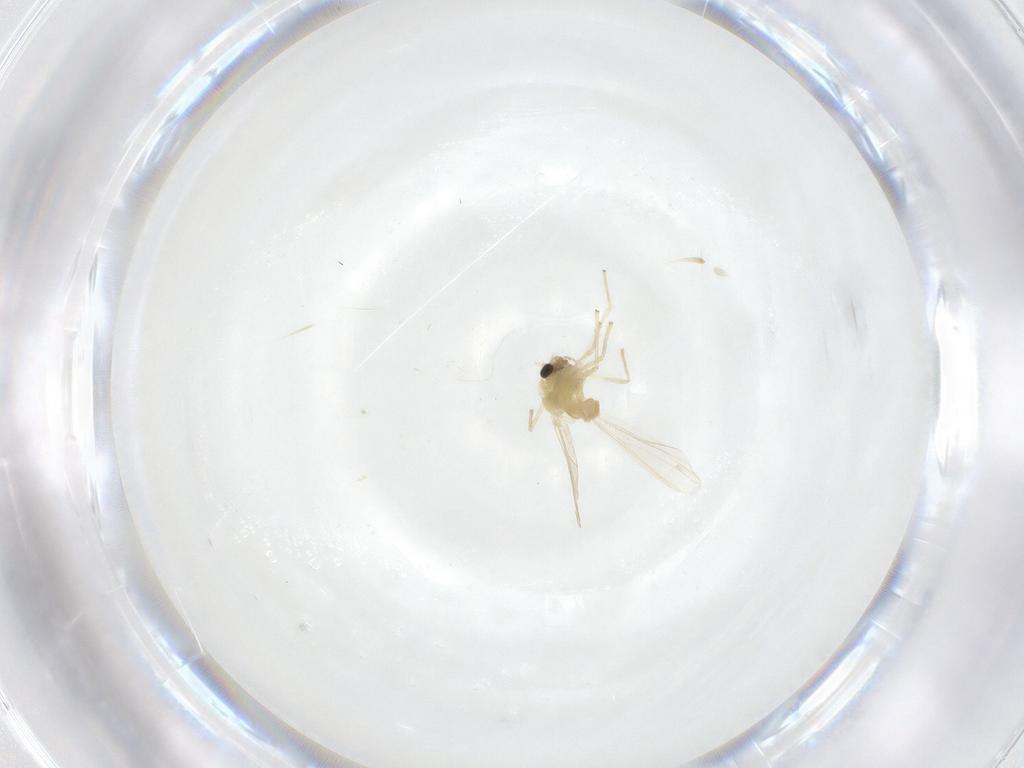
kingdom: Animalia
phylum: Arthropoda
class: Insecta
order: Diptera
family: Chironomidae
